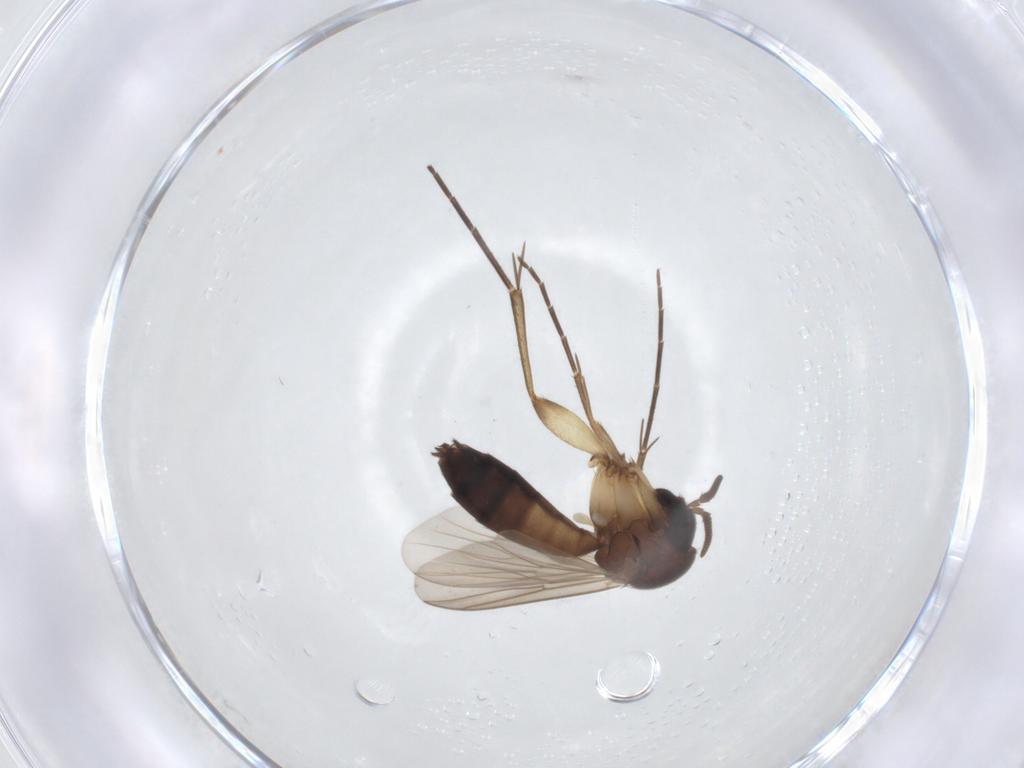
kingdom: Animalia
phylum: Arthropoda
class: Insecta
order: Diptera
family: Mycetophilidae
